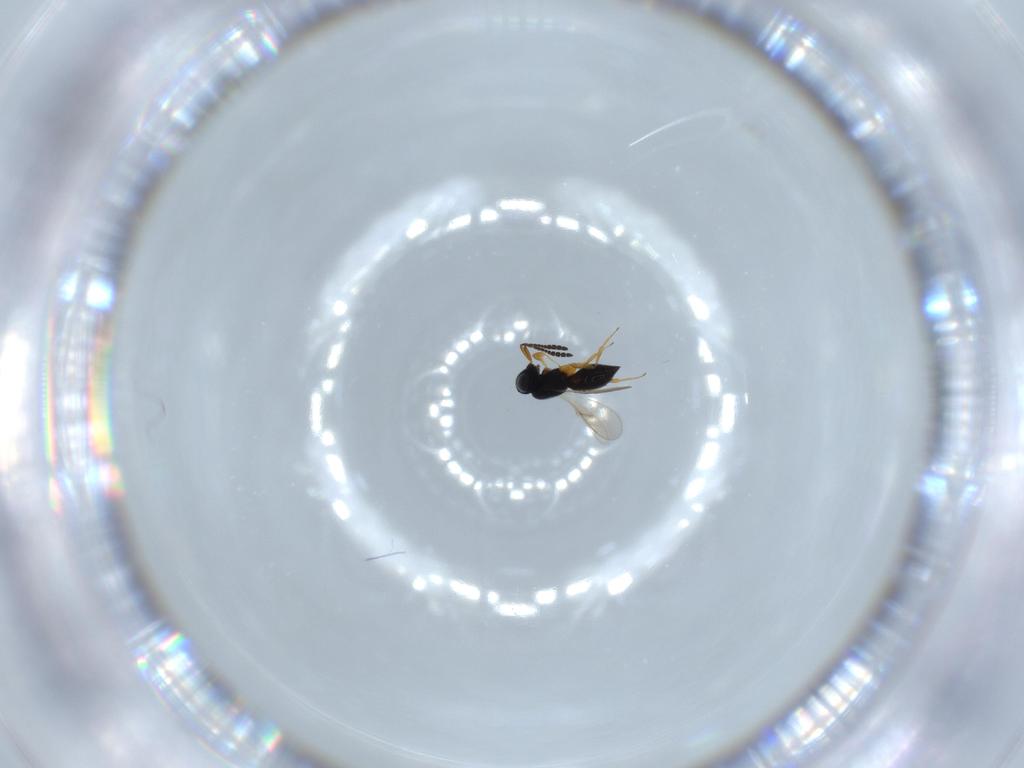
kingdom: Animalia
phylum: Arthropoda
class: Insecta
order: Hymenoptera
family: Scelionidae
